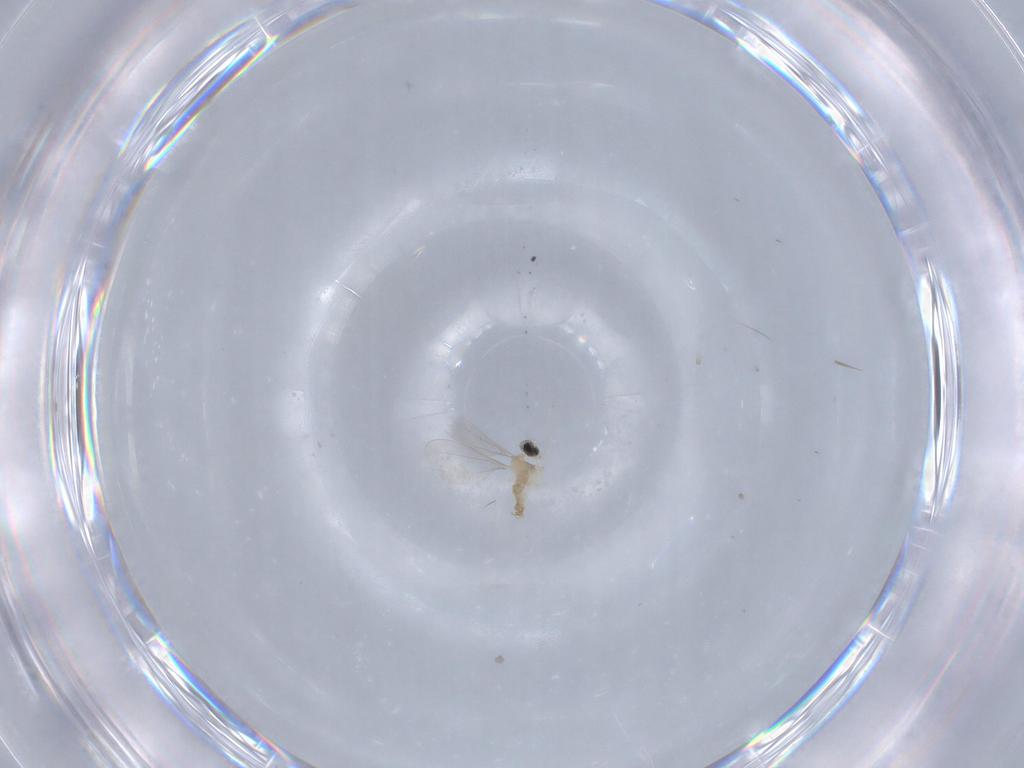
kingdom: Animalia
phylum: Arthropoda
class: Insecta
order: Diptera
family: Cecidomyiidae
